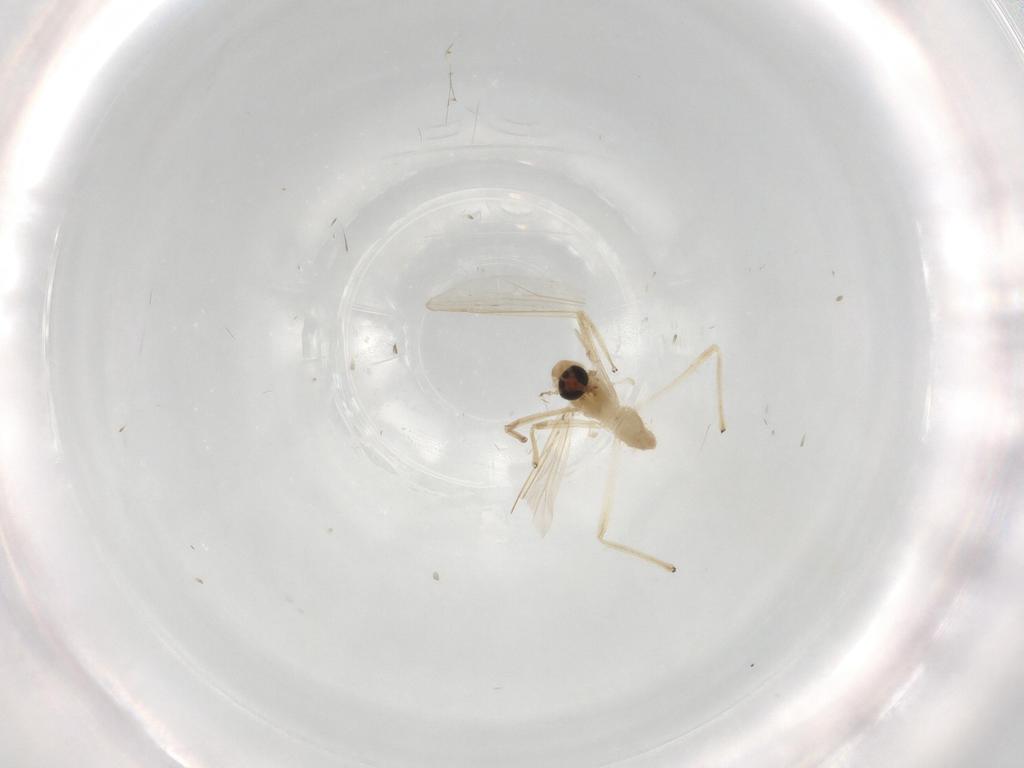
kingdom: Animalia
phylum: Arthropoda
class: Insecta
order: Diptera
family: Chironomidae
